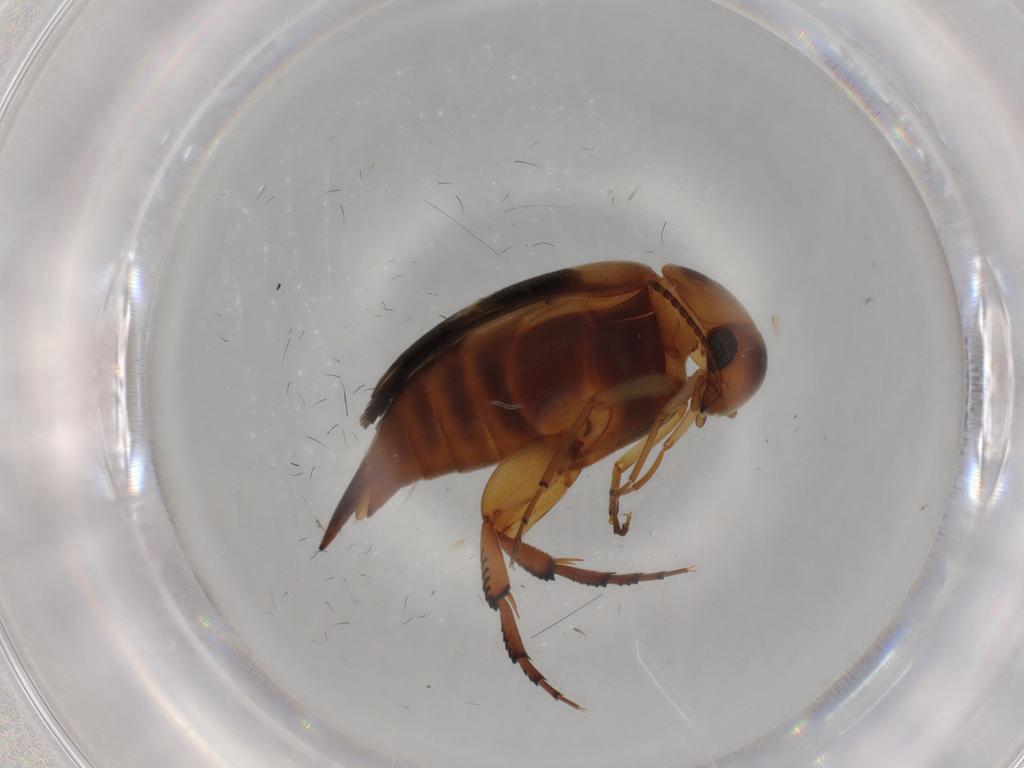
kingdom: Animalia
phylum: Arthropoda
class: Insecta
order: Coleoptera
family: Mordellidae
